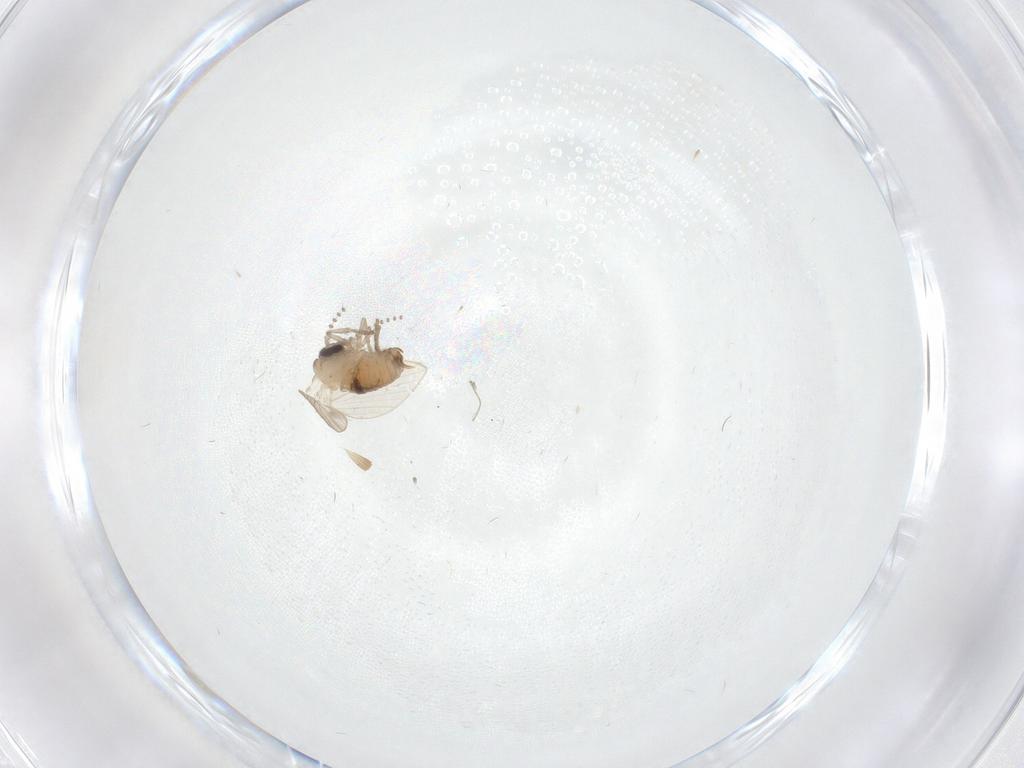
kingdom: Animalia
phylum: Arthropoda
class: Insecta
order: Diptera
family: Psychodidae
